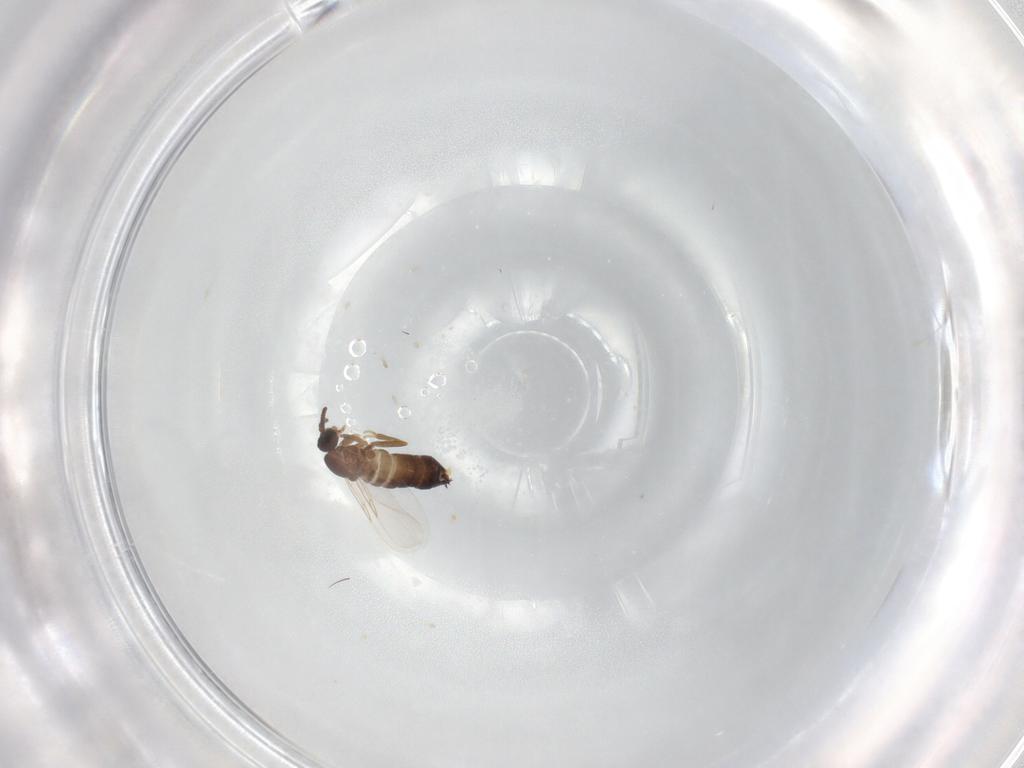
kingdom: Animalia
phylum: Arthropoda
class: Insecta
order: Diptera
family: Scatopsidae
